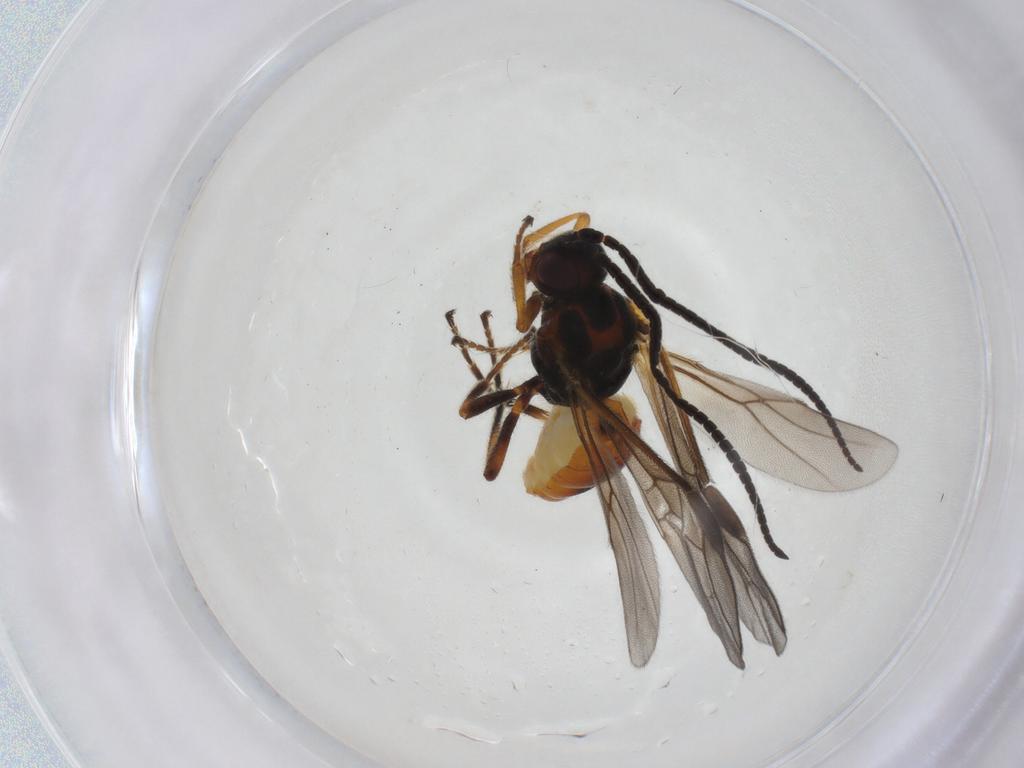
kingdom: Animalia
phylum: Arthropoda
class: Insecta
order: Hymenoptera
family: Braconidae
